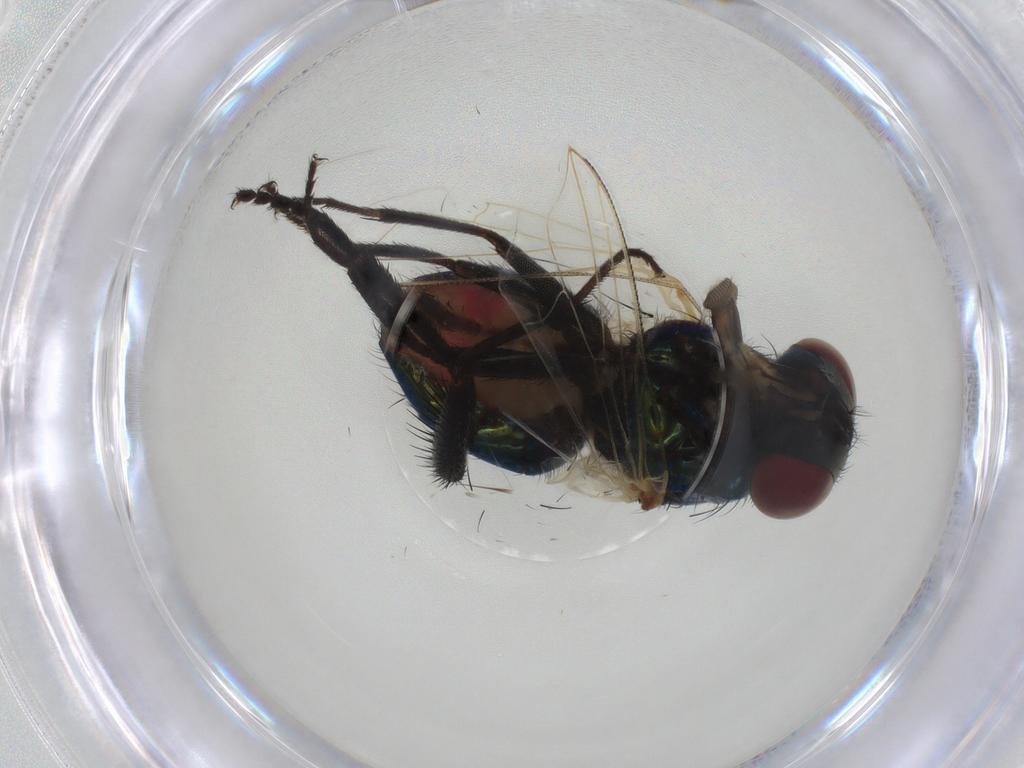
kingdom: Animalia
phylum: Arthropoda
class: Insecta
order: Diptera
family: Muscidae
